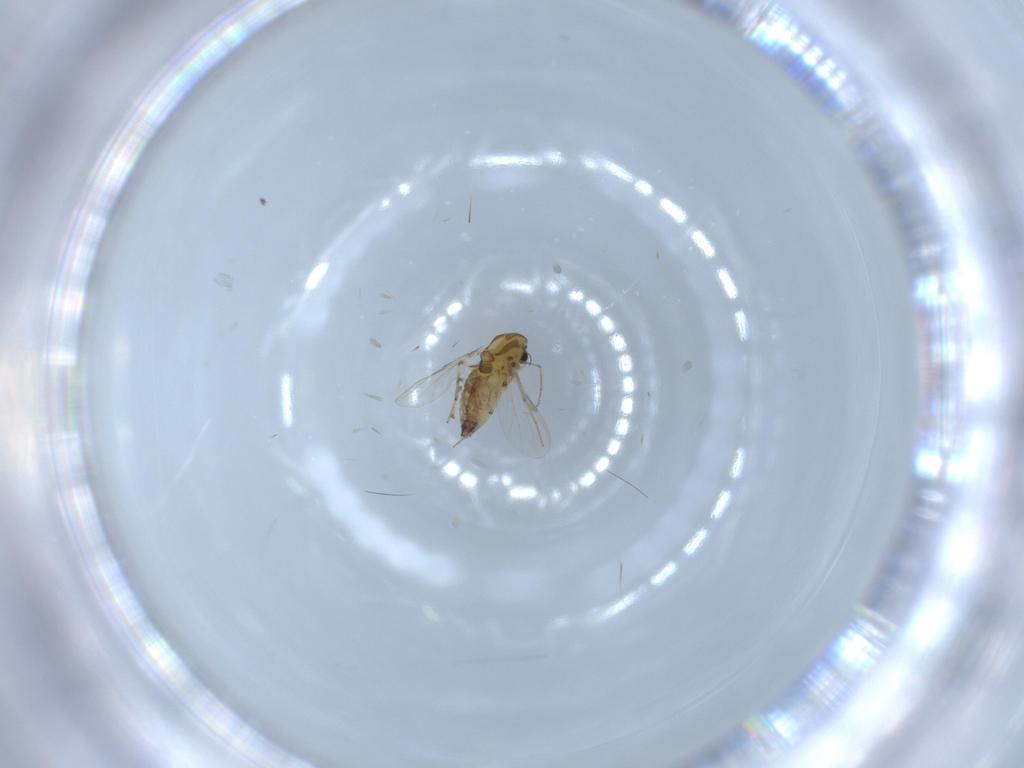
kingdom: Animalia
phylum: Arthropoda
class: Insecta
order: Diptera
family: Chironomidae
